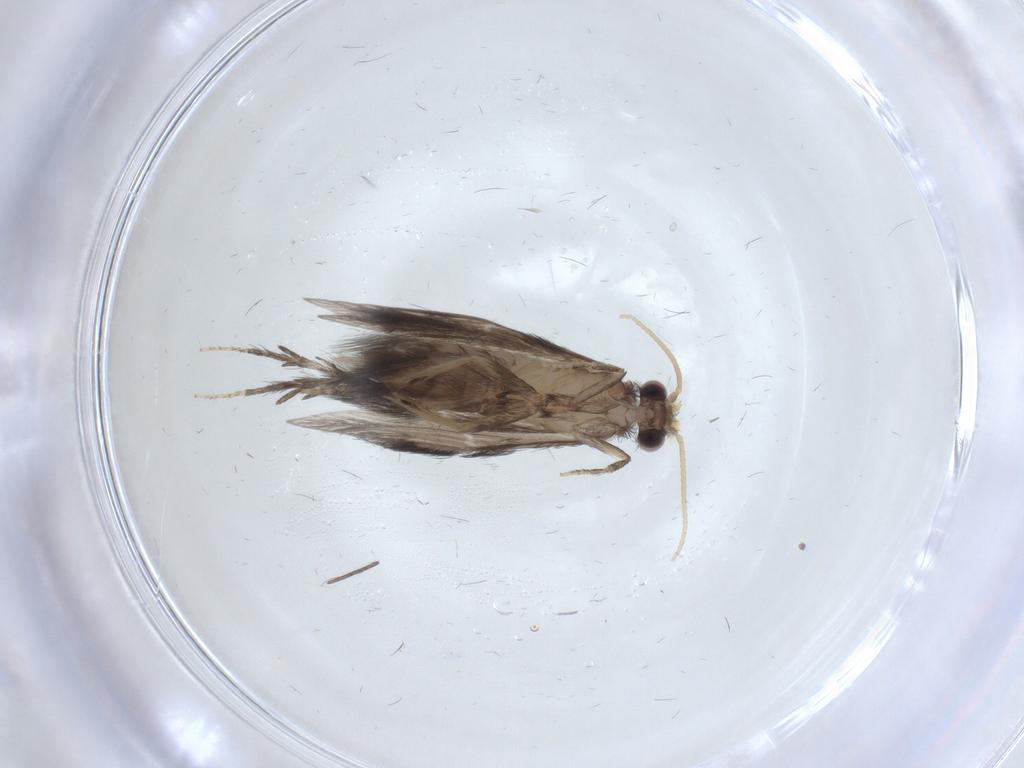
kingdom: Animalia
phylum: Arthropoda
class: Insecta
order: Trichoptera
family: Hydroptilidae
